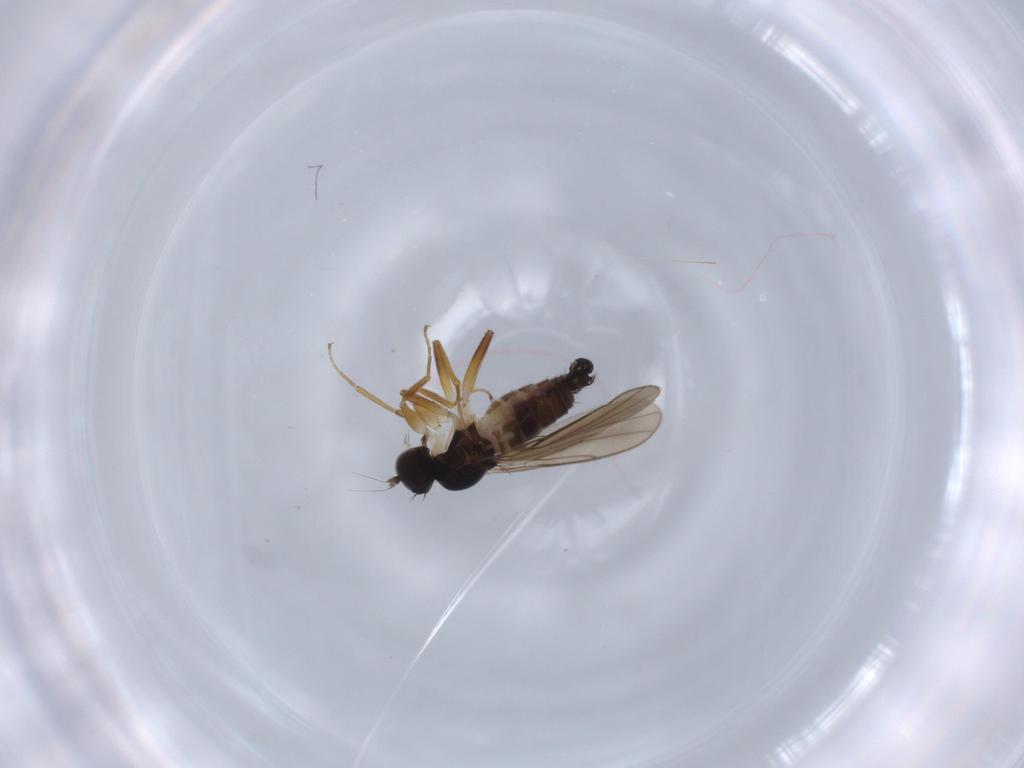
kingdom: Animalia
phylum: Arthropoda
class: Insecta
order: Diptera
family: Hybotidae
